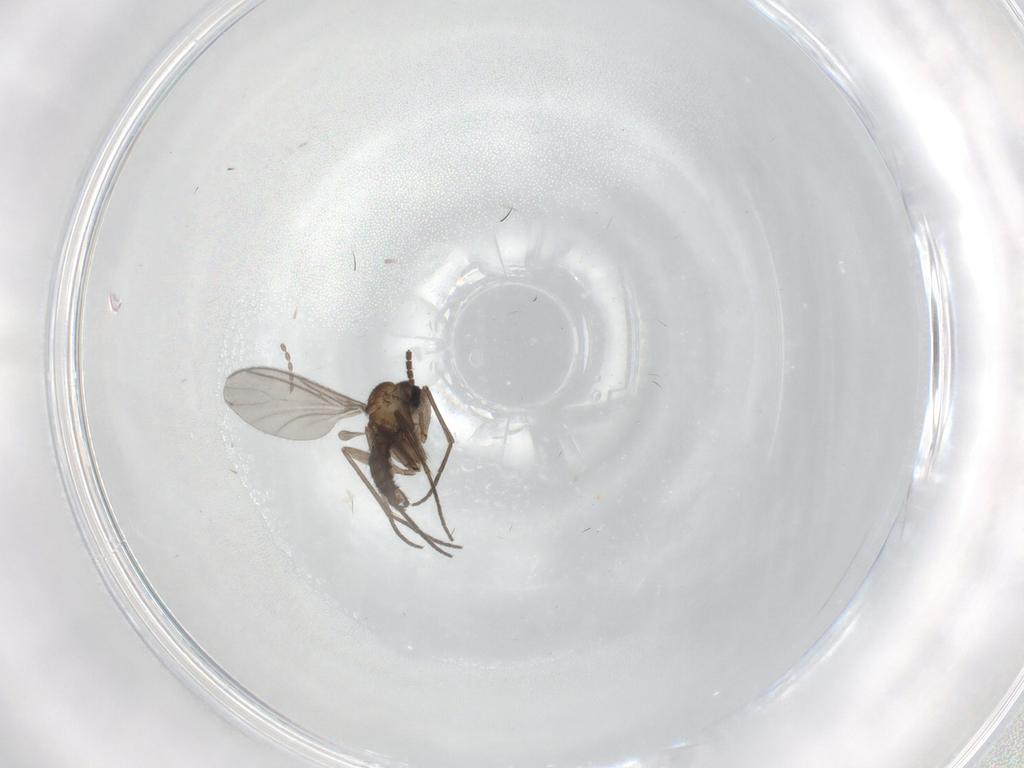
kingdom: Animalia
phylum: Arthropoda
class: Insecta
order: Diptera
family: Sciaridae
